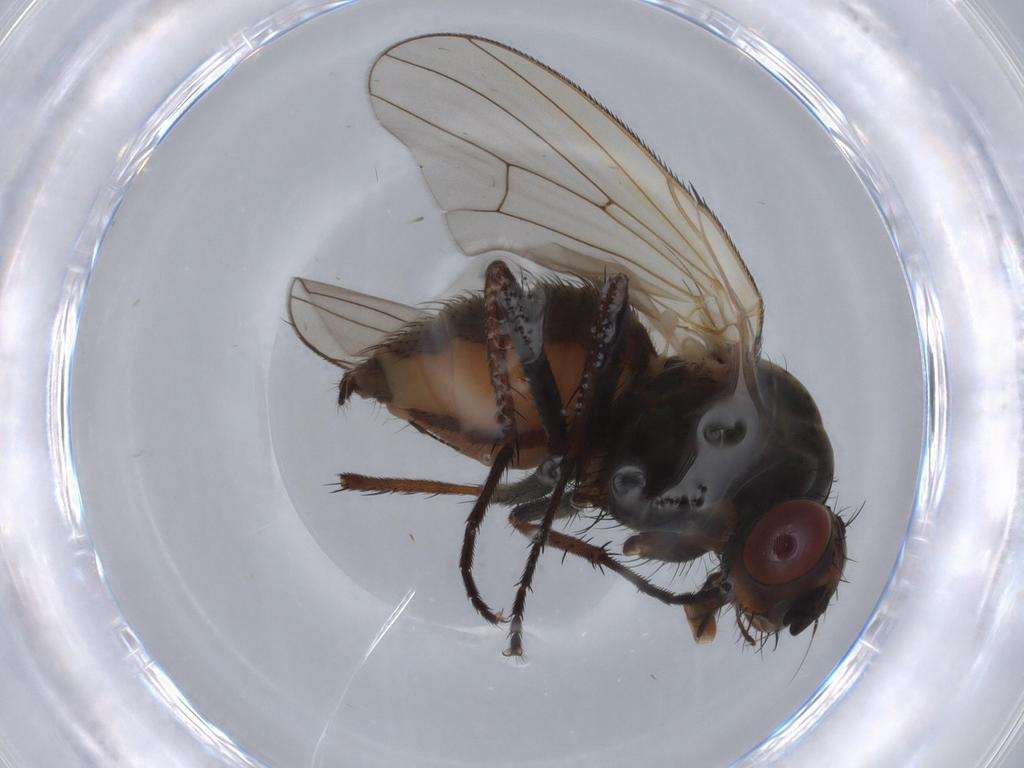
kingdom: Animalia
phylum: Arthropoda
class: Insecta
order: Diptera
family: Anthomyiidae
